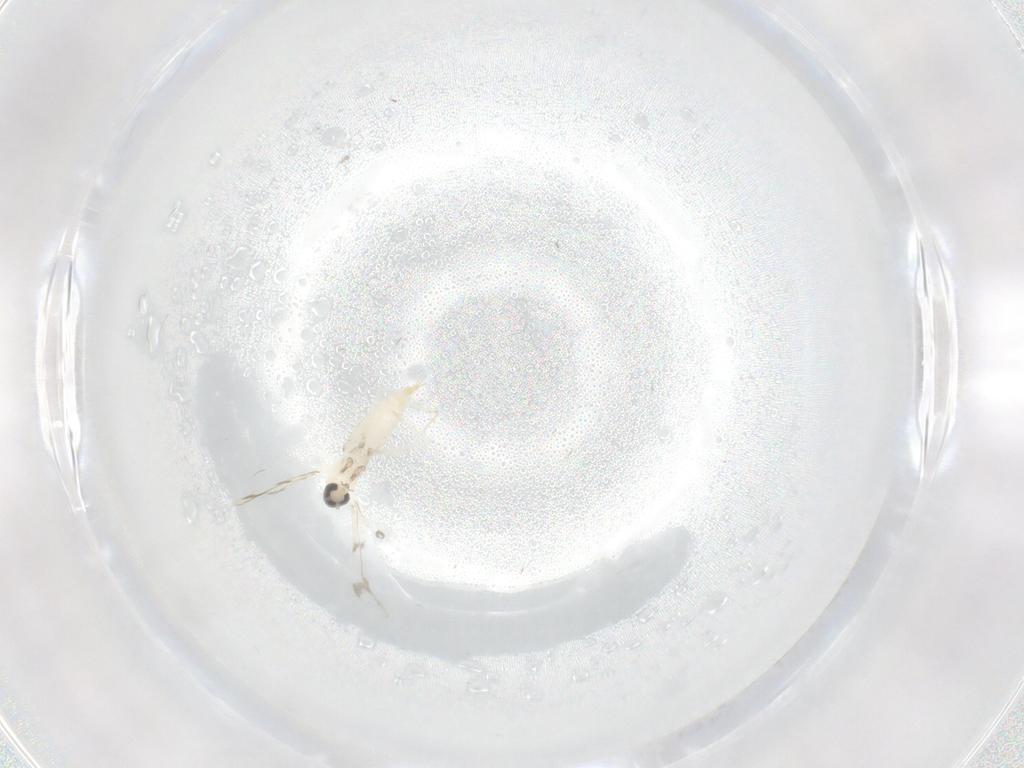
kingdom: Animalia
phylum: Arthropoda
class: Insecta
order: Diptera
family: Cecidomyiidae
